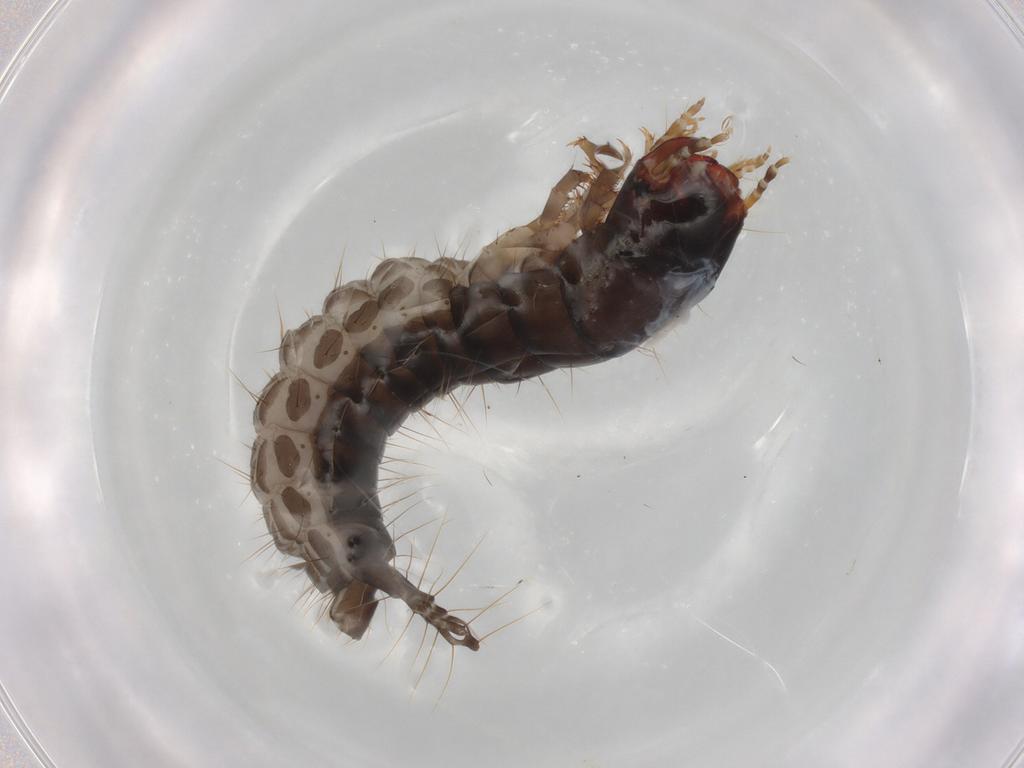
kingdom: Animalia
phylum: Arthropoda
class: Insecta
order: Coleoptera
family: Carabidae
